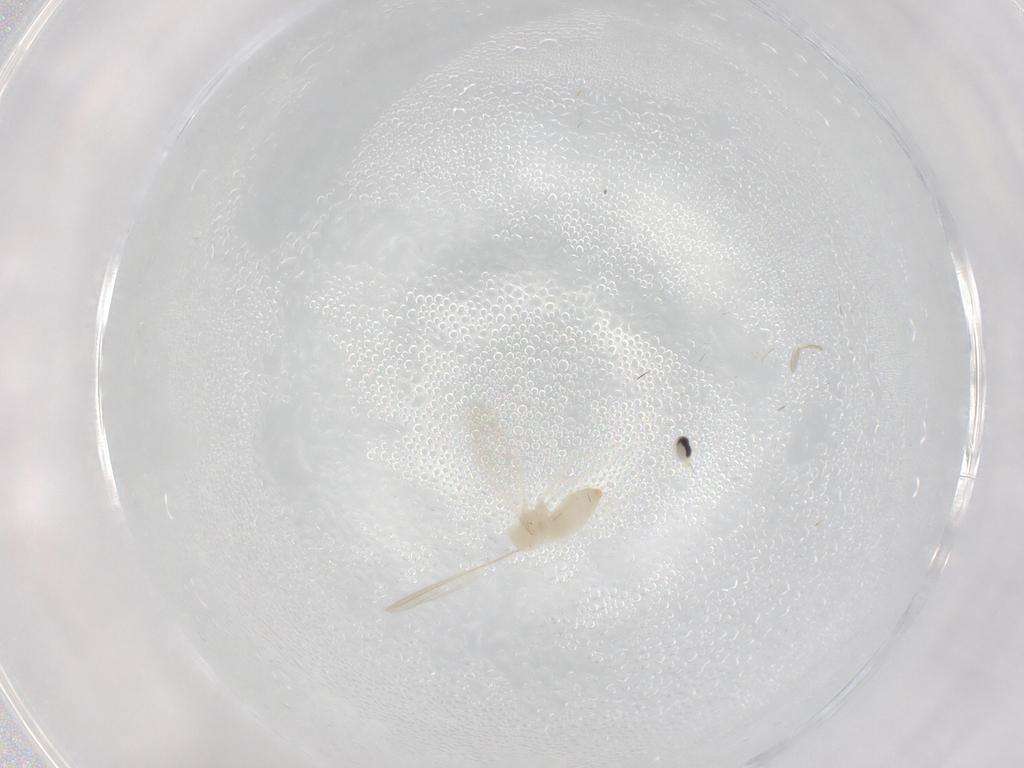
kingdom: Animalia
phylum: Arthropoda
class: Insecta
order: Diptera
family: Cecidomyiidae
